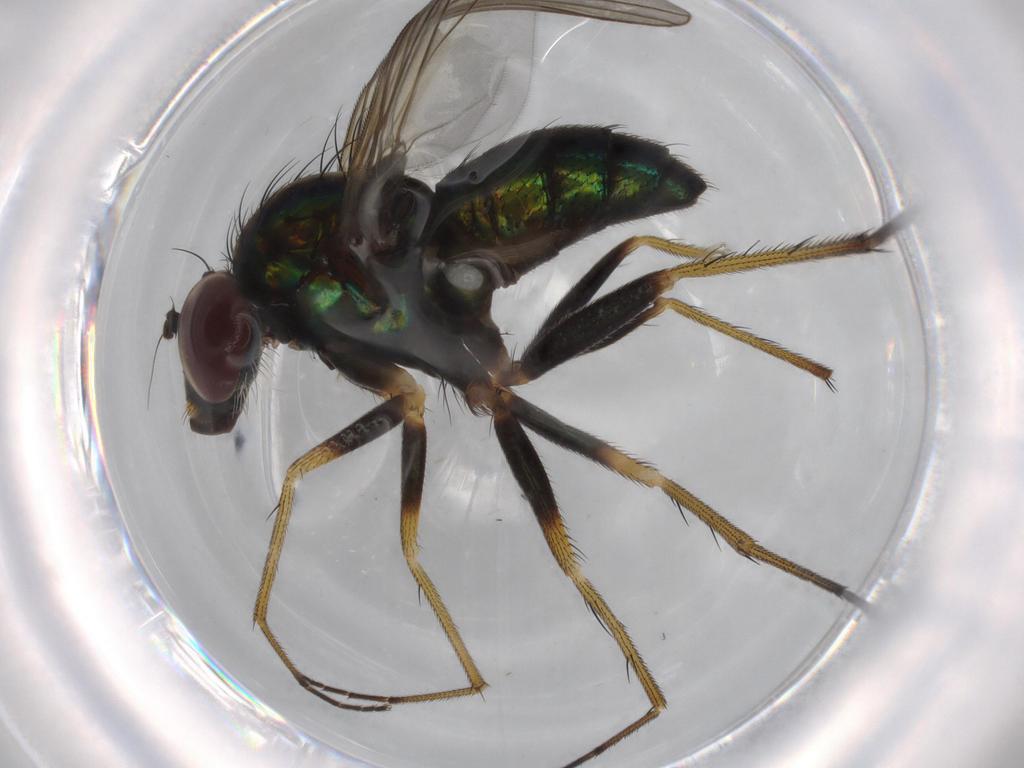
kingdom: Animalia
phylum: Arthropoda
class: Insecta
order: Diptera
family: Dolichopodidae
